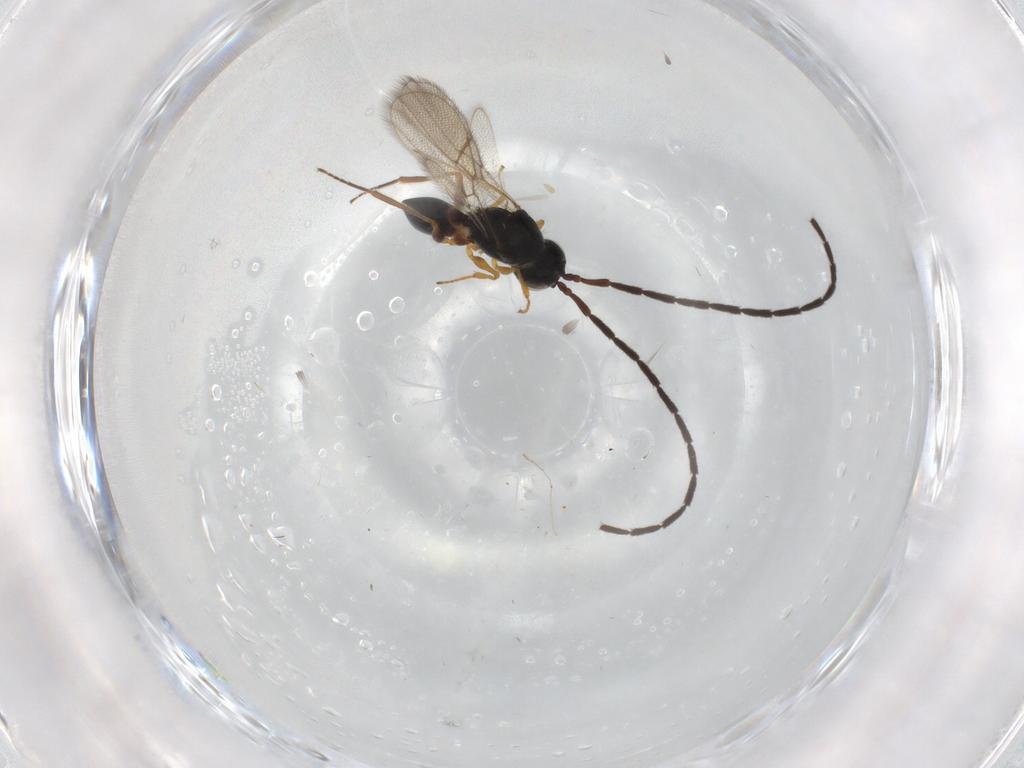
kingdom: Animalia
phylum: Arthropoda
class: Insecta
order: Hymenoptera
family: Figitidae
